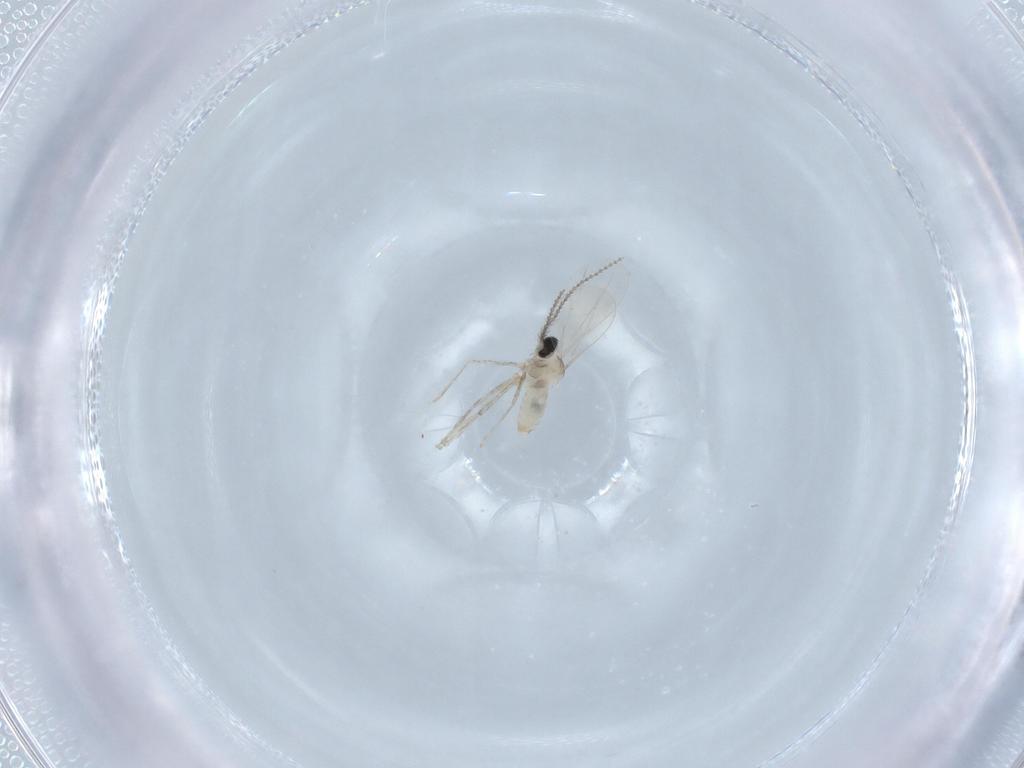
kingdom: Animalia
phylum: Arthropoda
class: Insecta
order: Diptera
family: Cecidomyiidae
